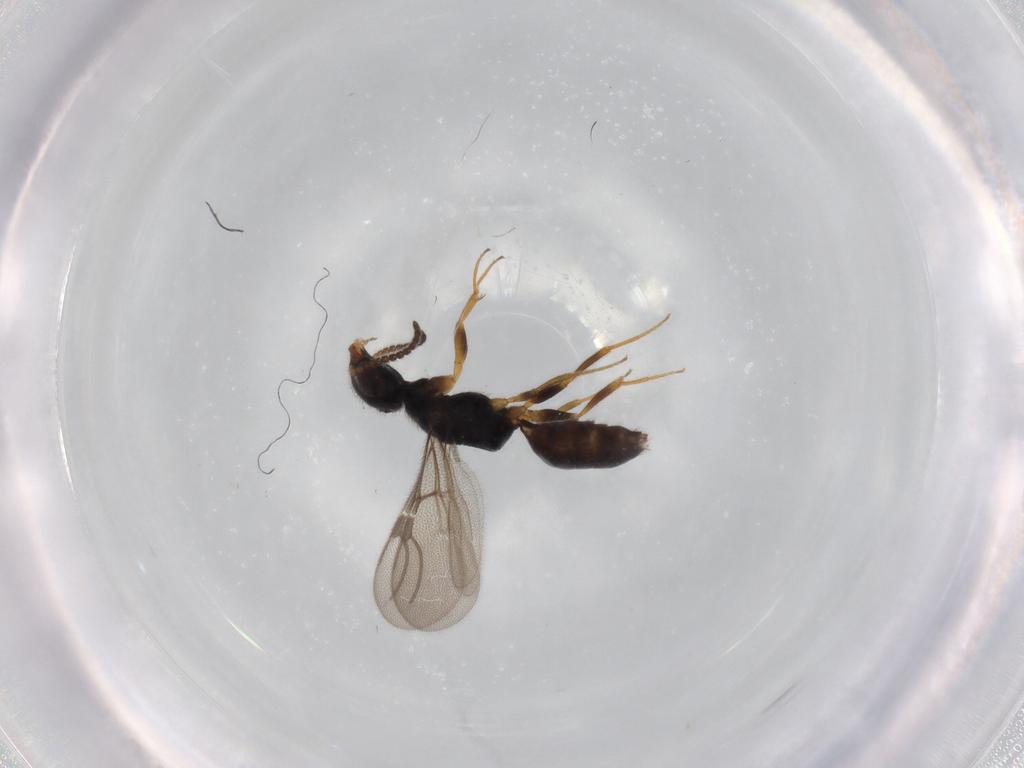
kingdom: Animalia
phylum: Arthropoda
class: Insecta
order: Hymenoptera
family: Bethylidae
